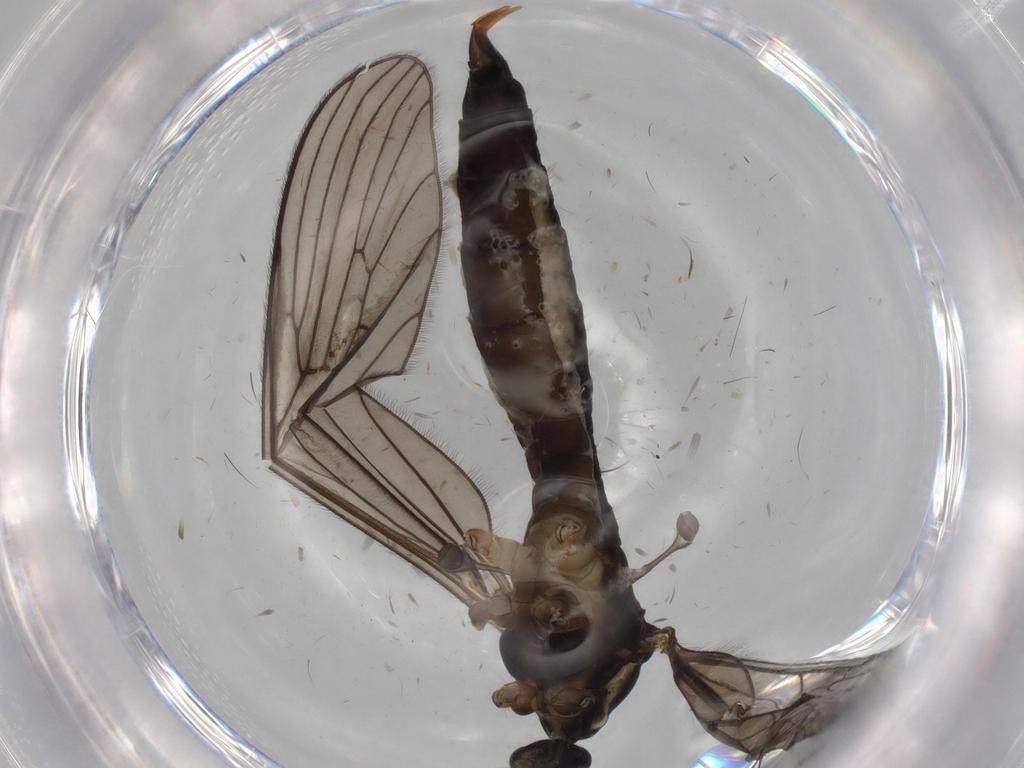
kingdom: Animalia
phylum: Arthropoda
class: Insecta
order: Diptera
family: Limoniidae
